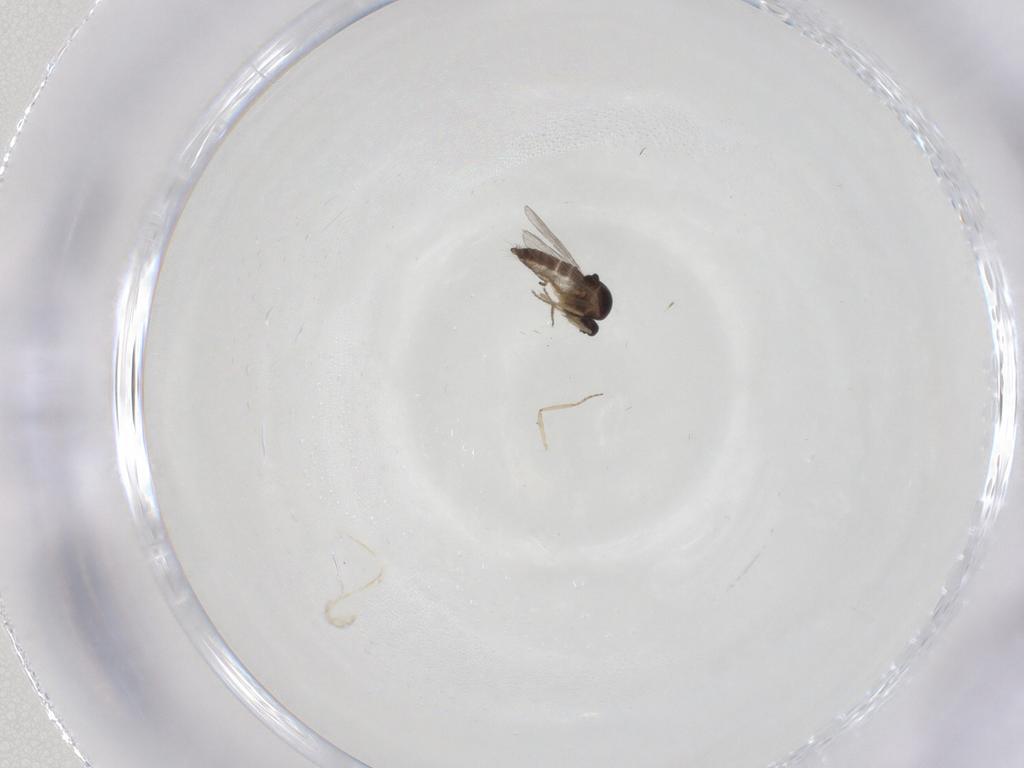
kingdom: Animalia
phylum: Arthropoda
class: Insecta
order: Diptera
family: Ceratopogonidae
